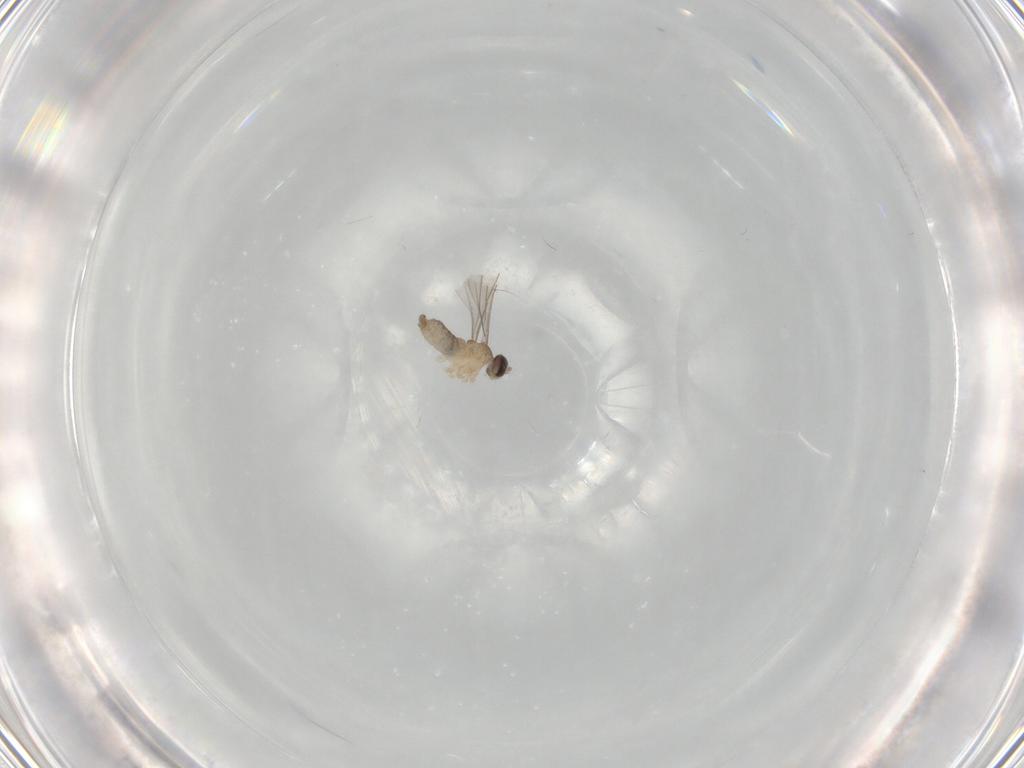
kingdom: Animalia
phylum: Arthropoda
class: Insecta
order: Diptera
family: Cecidomyiidae
